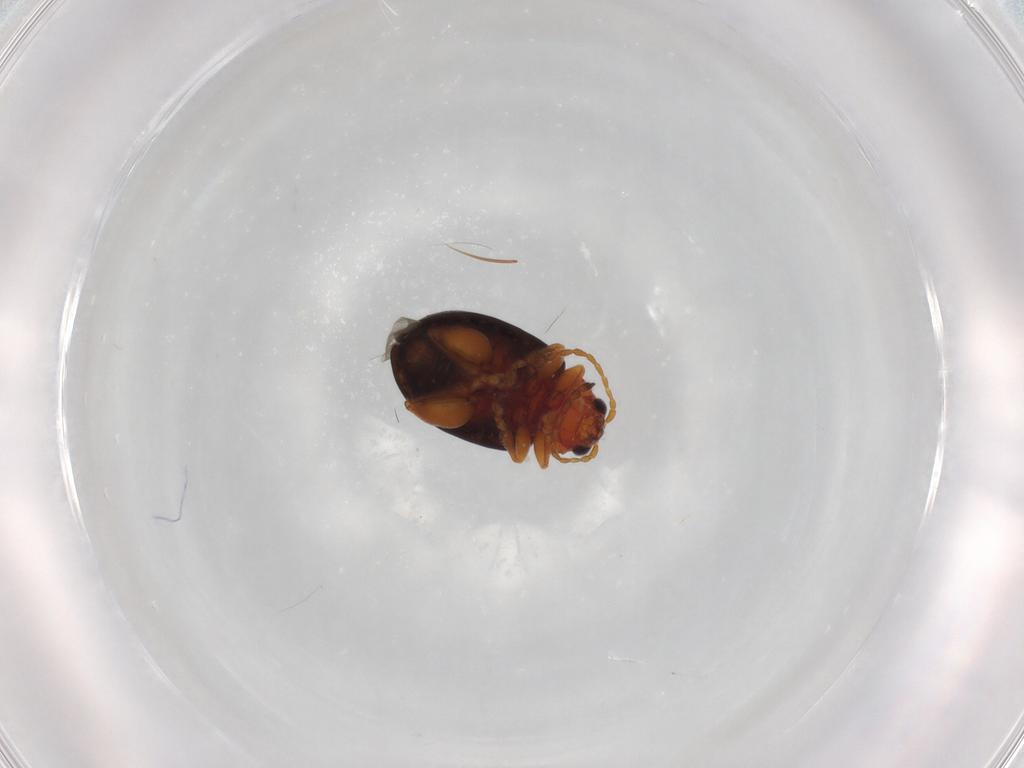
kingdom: Animalia
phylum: Arthropoda
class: Insecta
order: Coleoptera
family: Chrysomelidae
